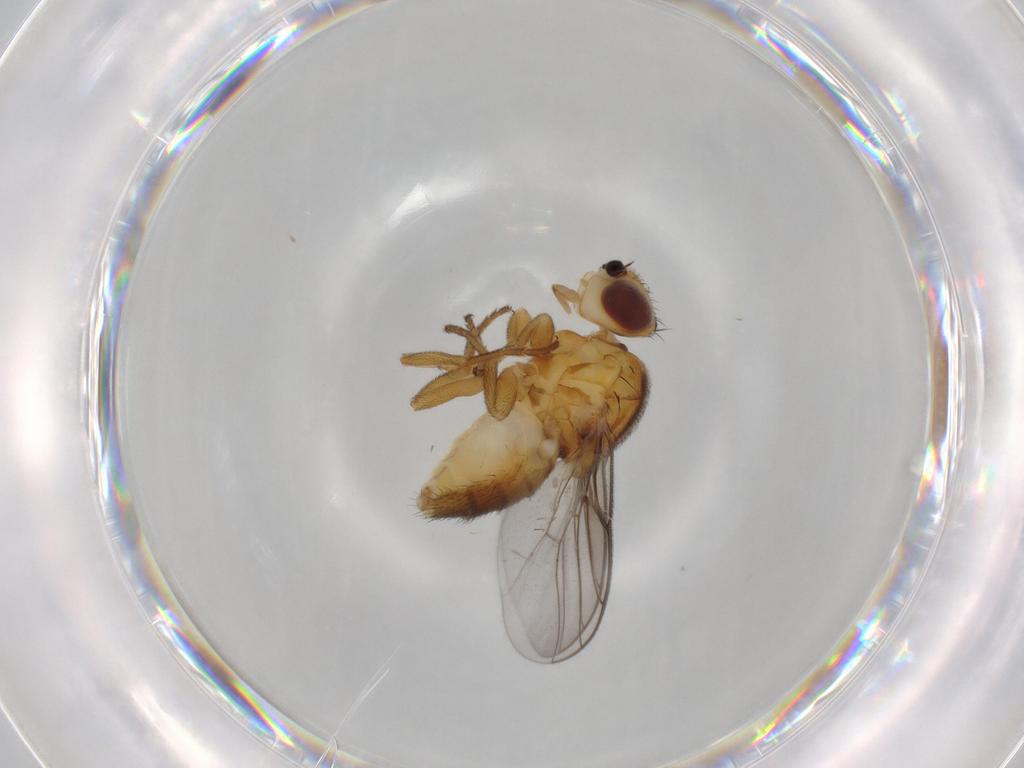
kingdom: Animalia
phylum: Arthropoda
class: Insecta
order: Diptera
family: Chloropidae
